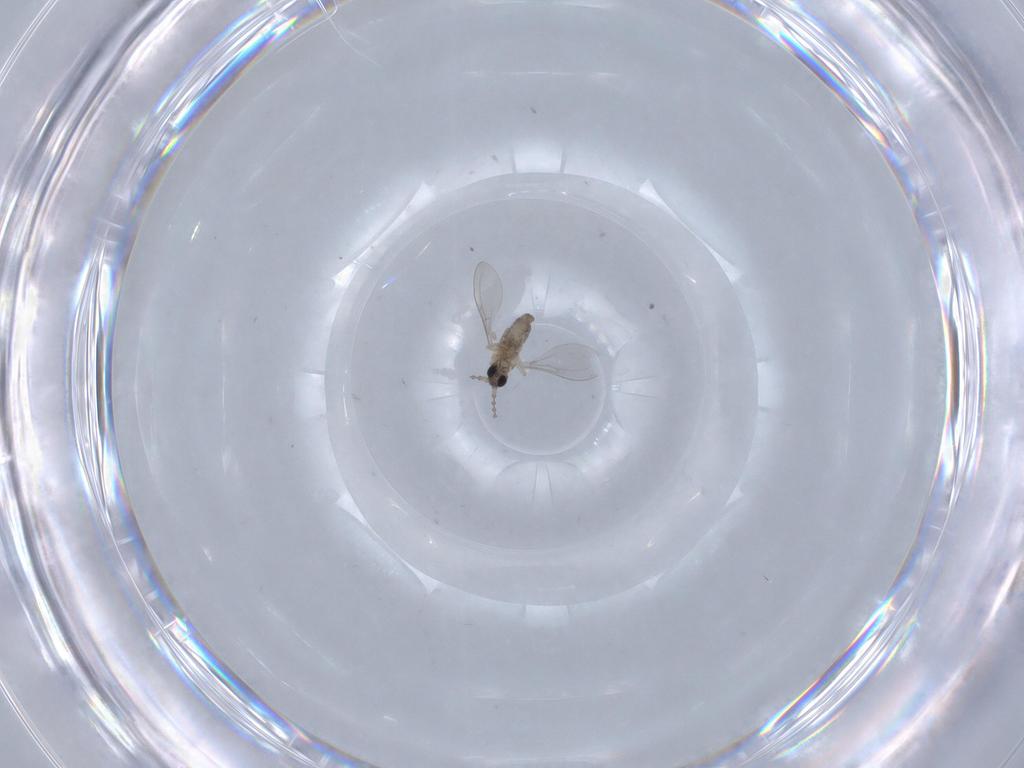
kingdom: Animalia
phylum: Arthropoda
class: Insecta
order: Diptera
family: Cecidomyiidae
